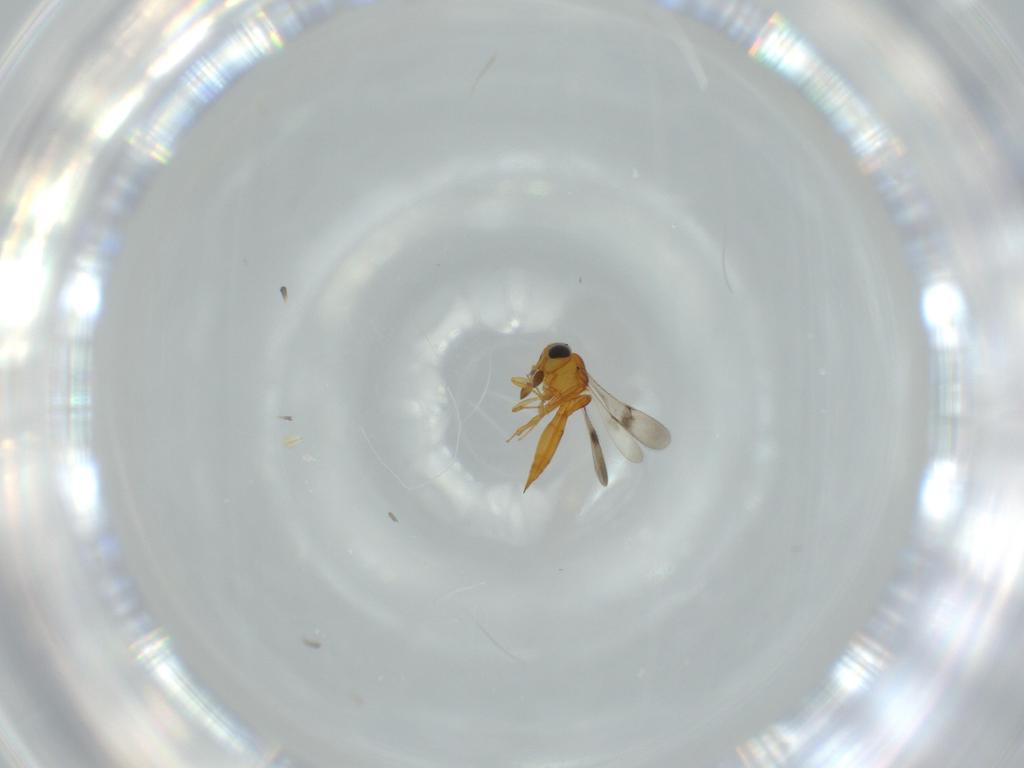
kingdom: Animalia
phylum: Arthropoda
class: Insecta
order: Hymenoptera
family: Scelionidae
